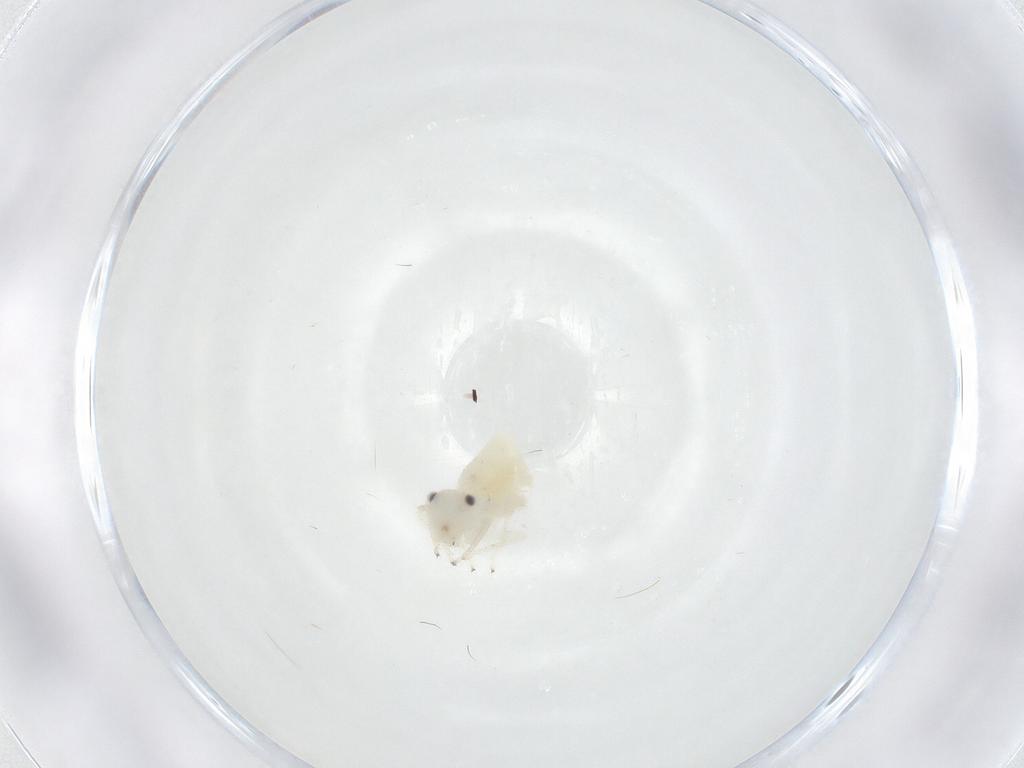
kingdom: Animalia
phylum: Arthropoda
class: Insecta
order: Psocodea
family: Caeciliusidae
